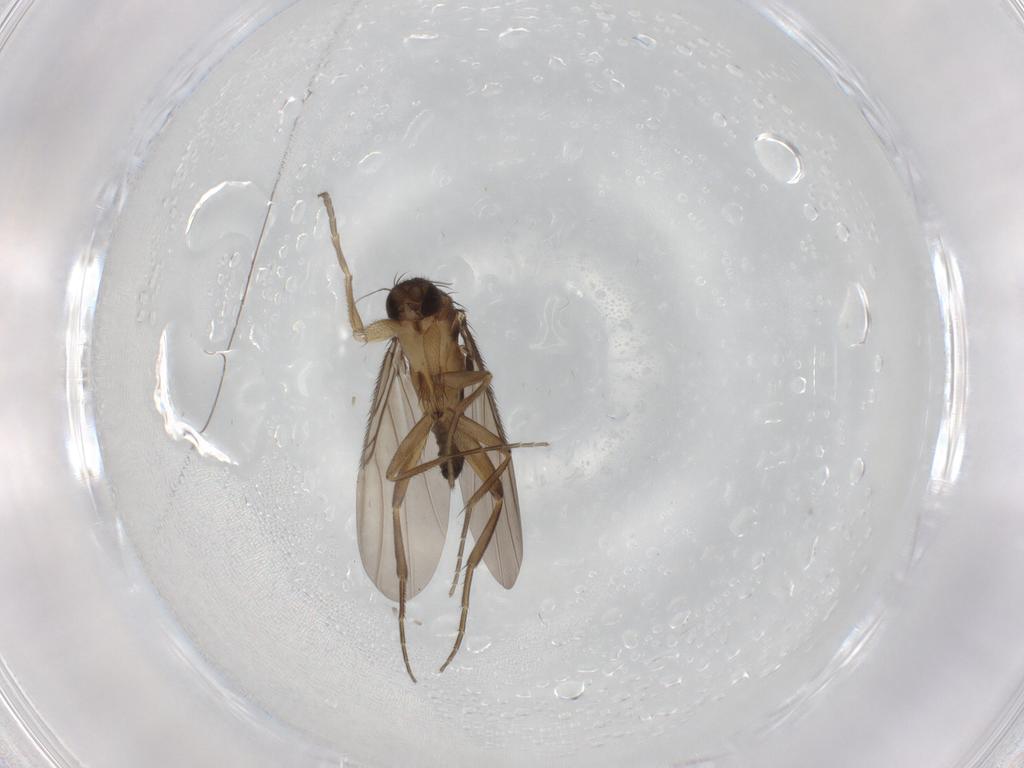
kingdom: Animalia
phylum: Arthropoda
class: Insecta
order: Diptera
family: Phoridae
